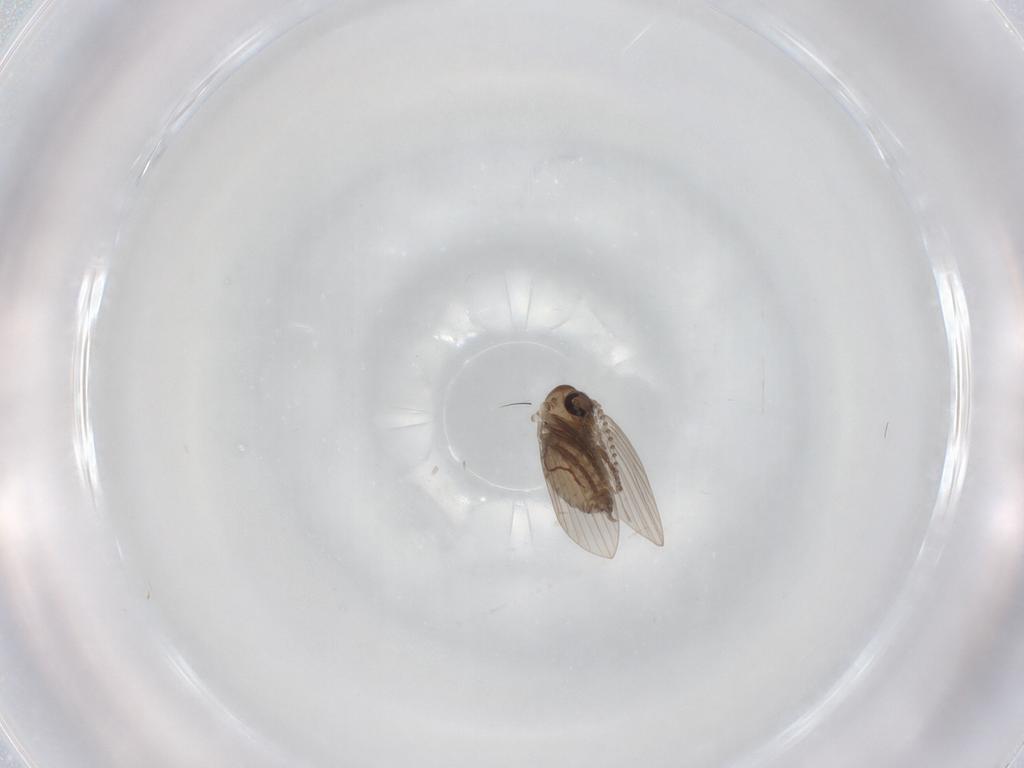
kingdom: Animalia
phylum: Arthropoda
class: Insecta
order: Diptera
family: Psychodidae
